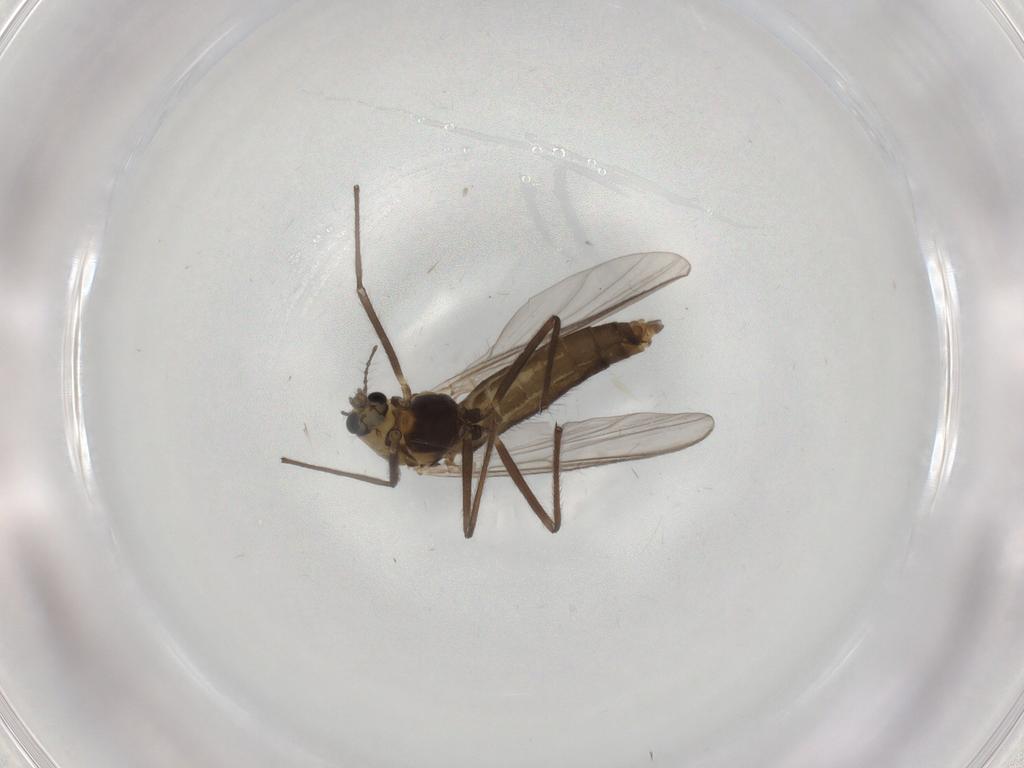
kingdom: Animalia
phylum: Arthropoda
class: Insecta
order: Diptera
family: Chironomidae
